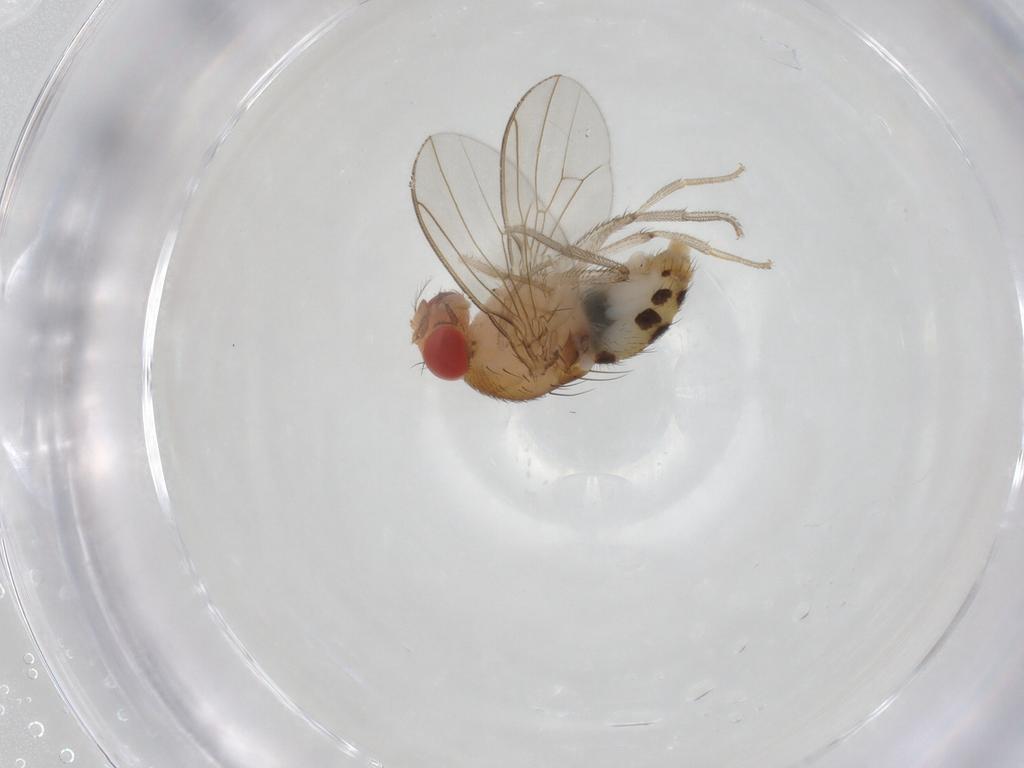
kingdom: Animalia
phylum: Arthropoda
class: Insecta
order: Diptera
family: Drosophilidae
